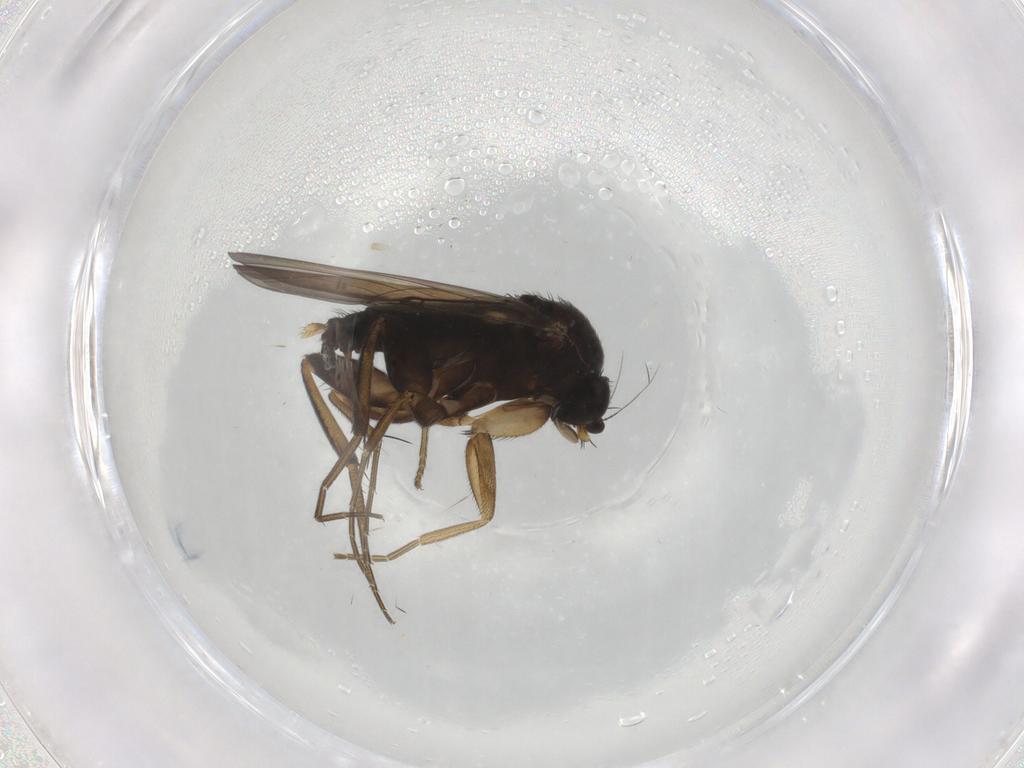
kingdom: Animalia
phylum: Arthropoda
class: Insecta
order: Diptera
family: Phoridae
